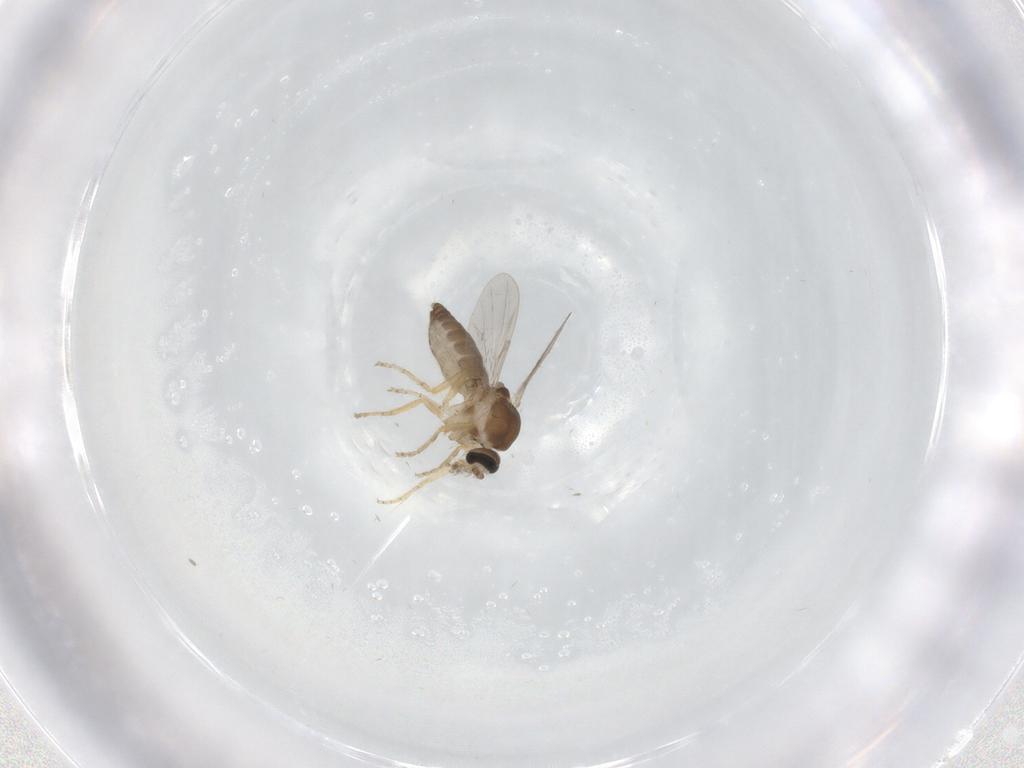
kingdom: Animalia
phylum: Arthropoda
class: Insecta
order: Diptera
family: Ceratopogonidae
